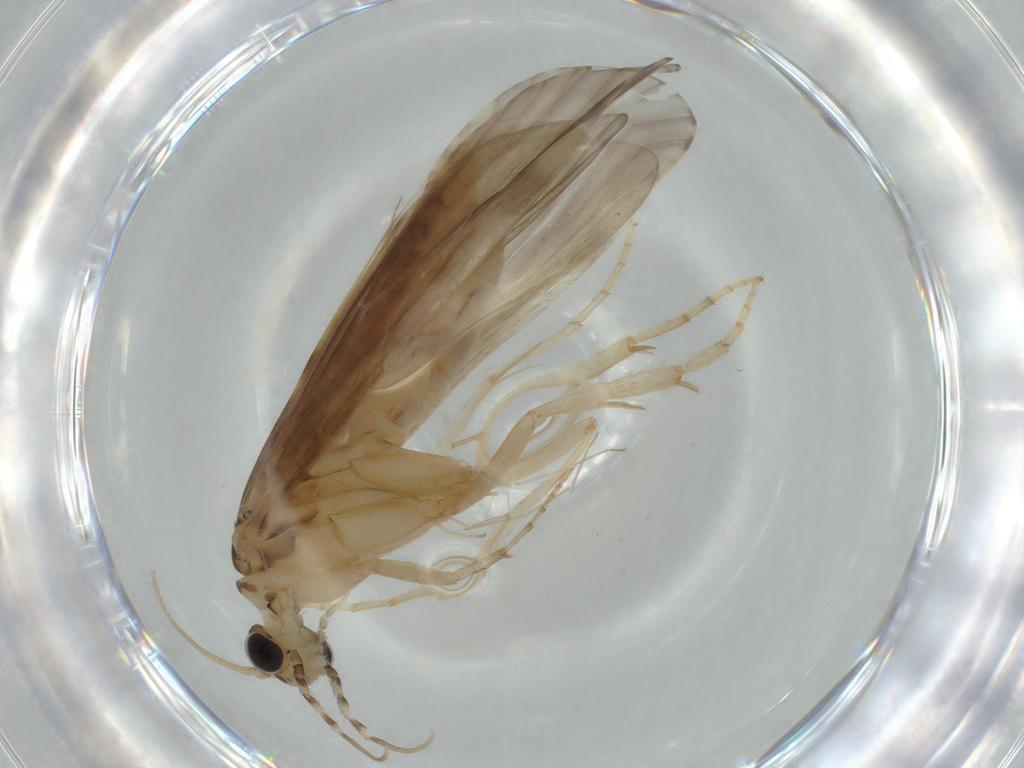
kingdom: Animalia
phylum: Arthropoda
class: Insecta
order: Trichoptera
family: Ecnomidae
